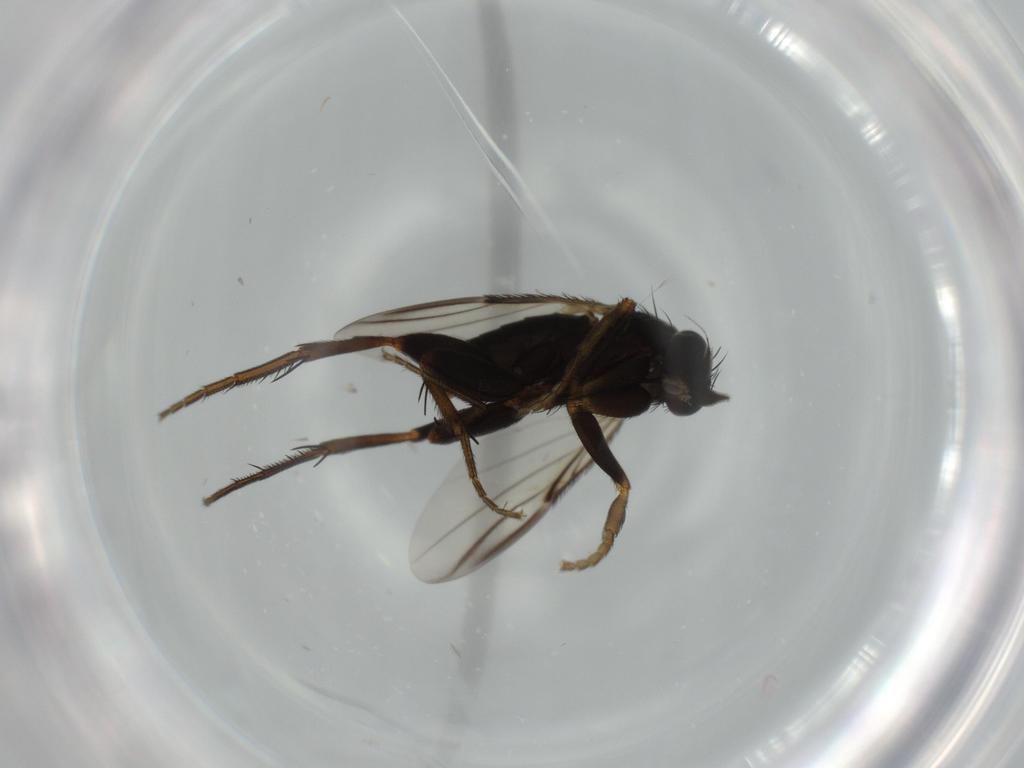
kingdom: Animalia
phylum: Arthropoda
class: Insecta
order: Diptera
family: Phoridae
